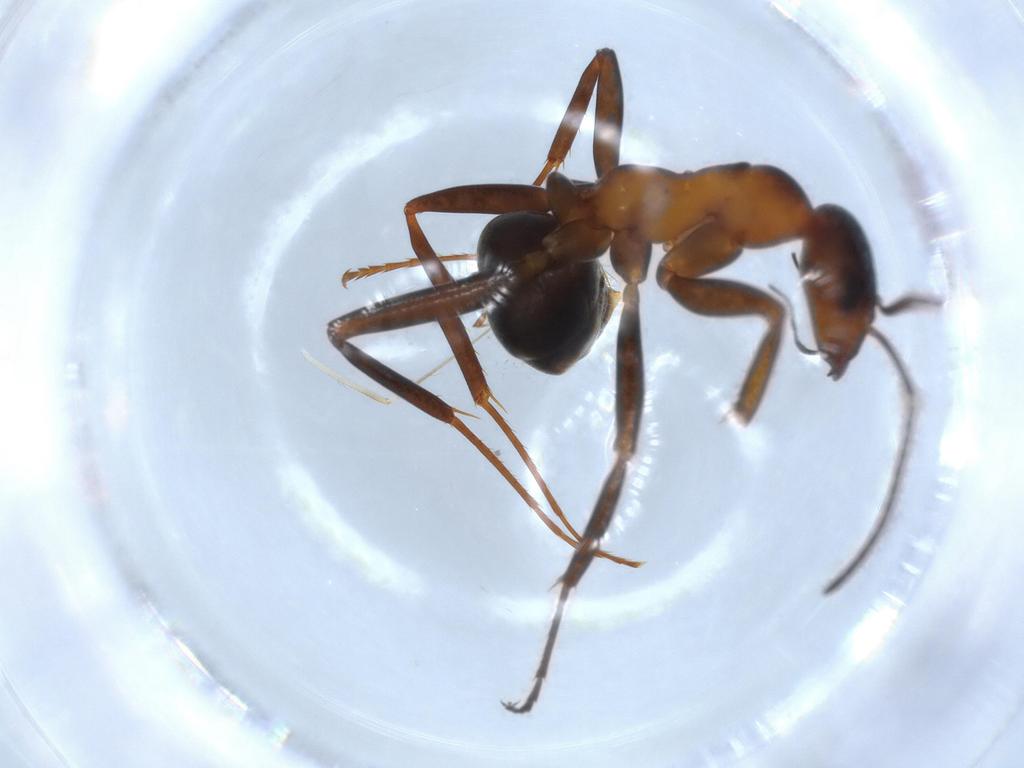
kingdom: Animalia
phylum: Arthropoda
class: Insecta
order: Hymenoptera
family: Formicidae
